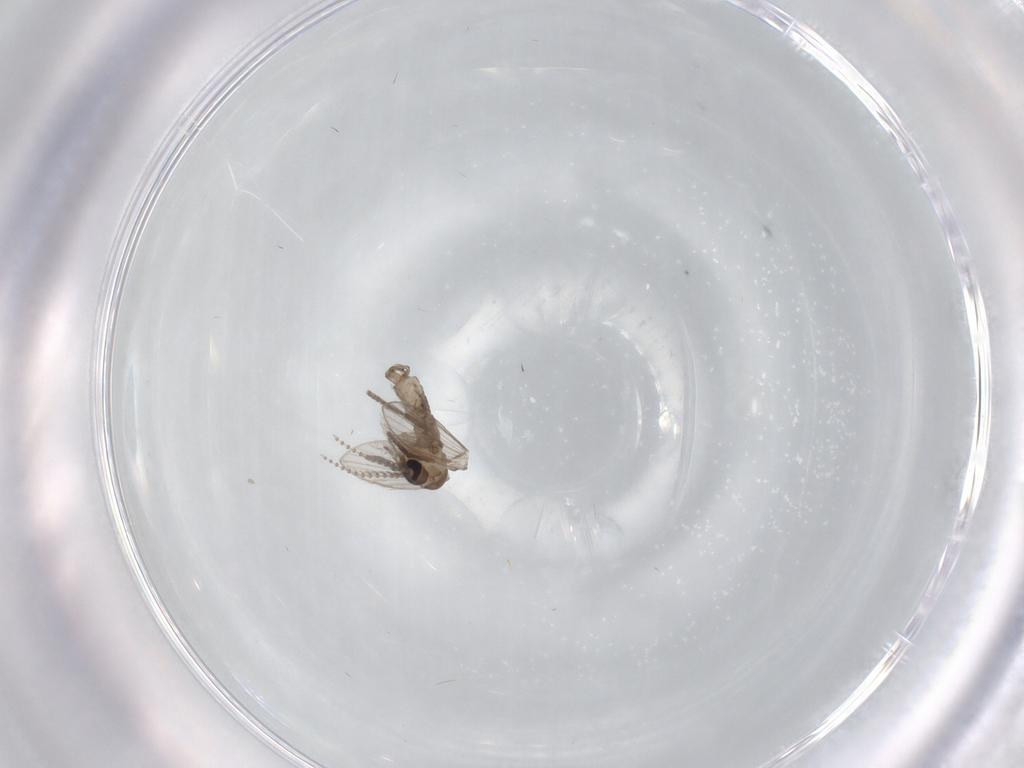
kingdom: Animalia
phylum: Arthropoda
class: Insecta
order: Diptera
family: Psychodidae
